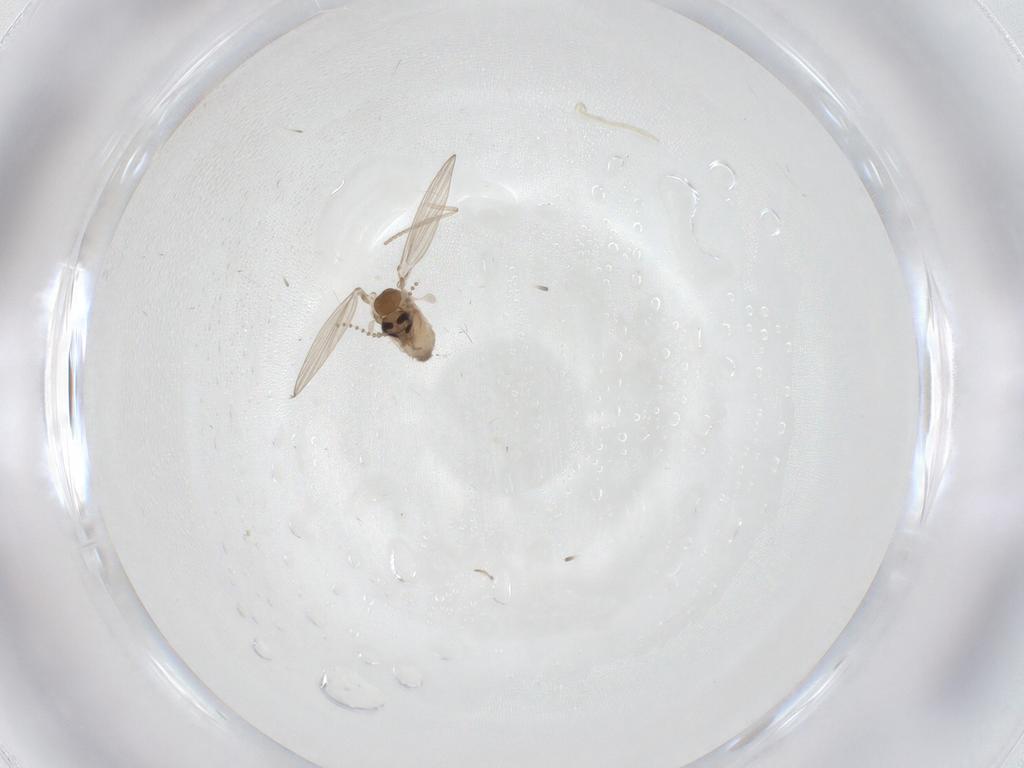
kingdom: Animalia
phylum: Arthropoda
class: Insecta
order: Diptera
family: Psychodidae
